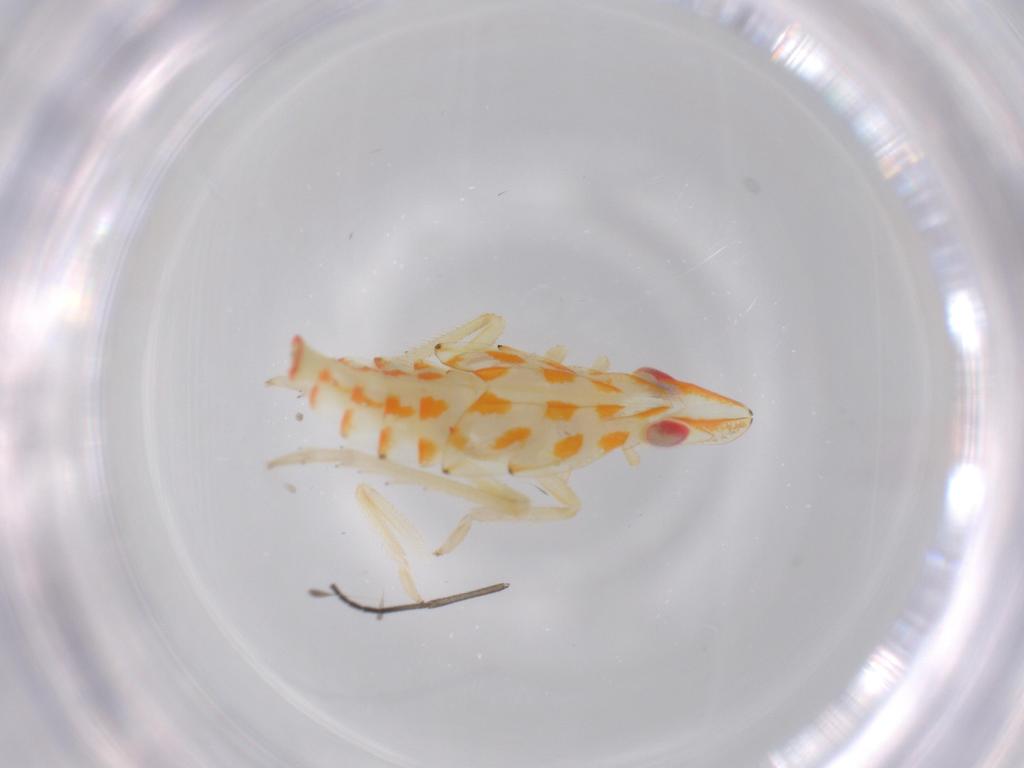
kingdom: Animalia
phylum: Arthropoda
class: Insecta
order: Hemiptera
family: Tropiduchidae
